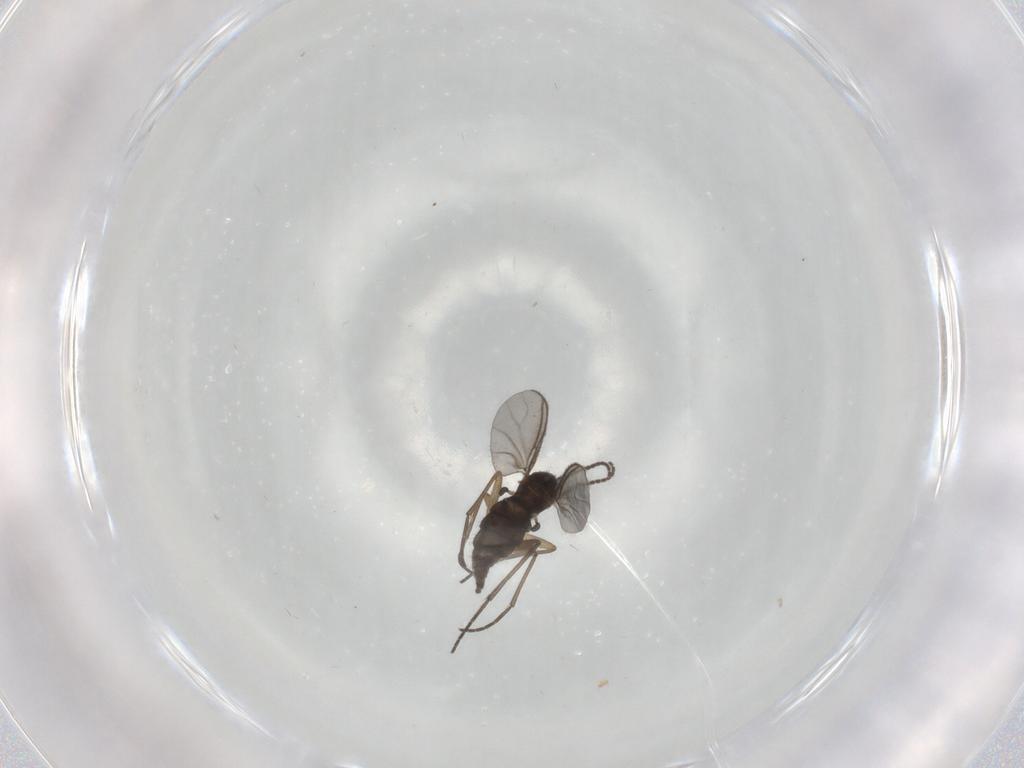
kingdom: Animalia
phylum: Arthropoda
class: Insecta
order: Diptera
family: Sciaridae
